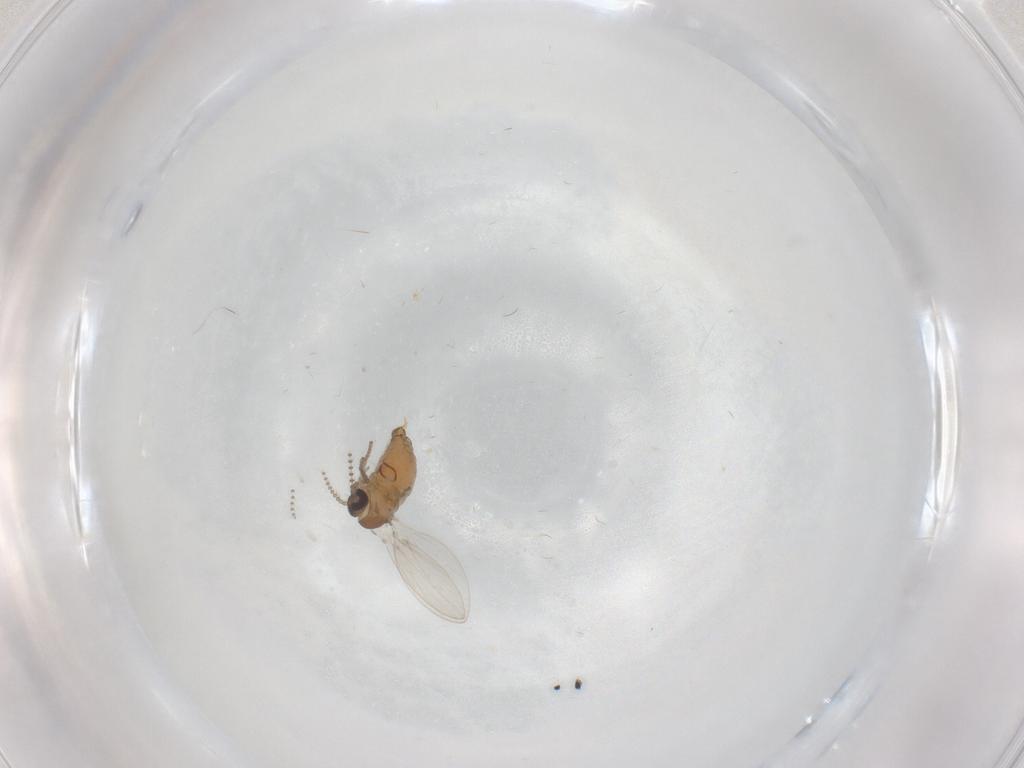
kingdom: Animalia
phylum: Arthropoda
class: Insecta
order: Diptera
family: Psychodidae
